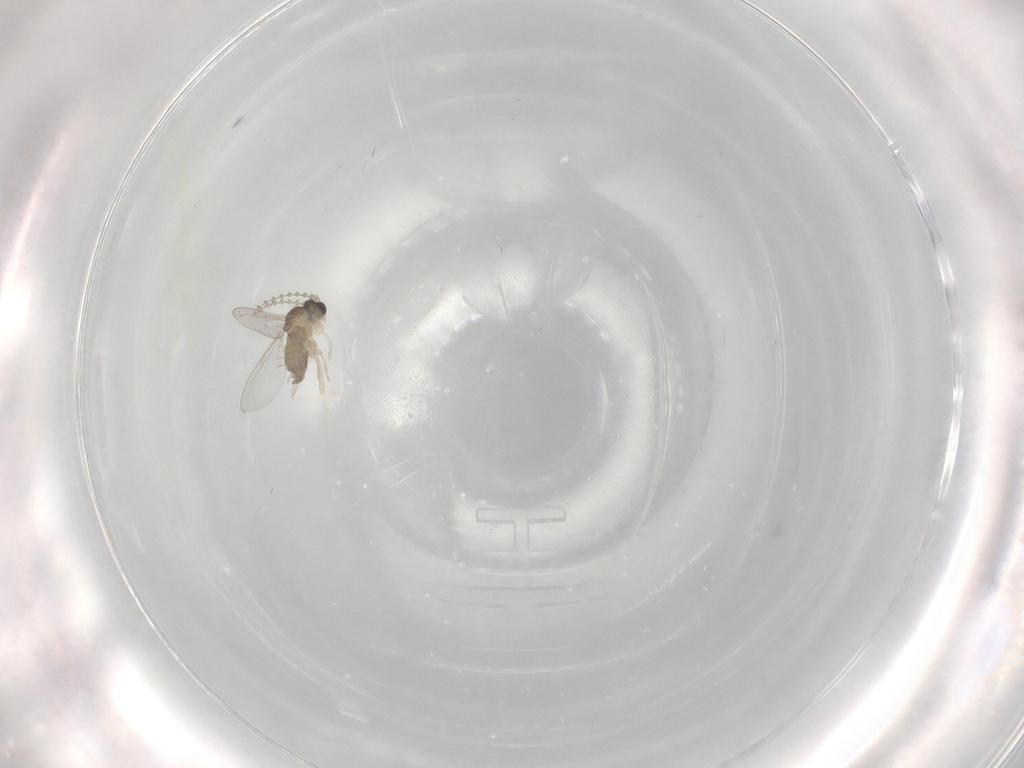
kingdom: Animalia
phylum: Arthropoda
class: Insecta
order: Diptera
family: Phoridae
